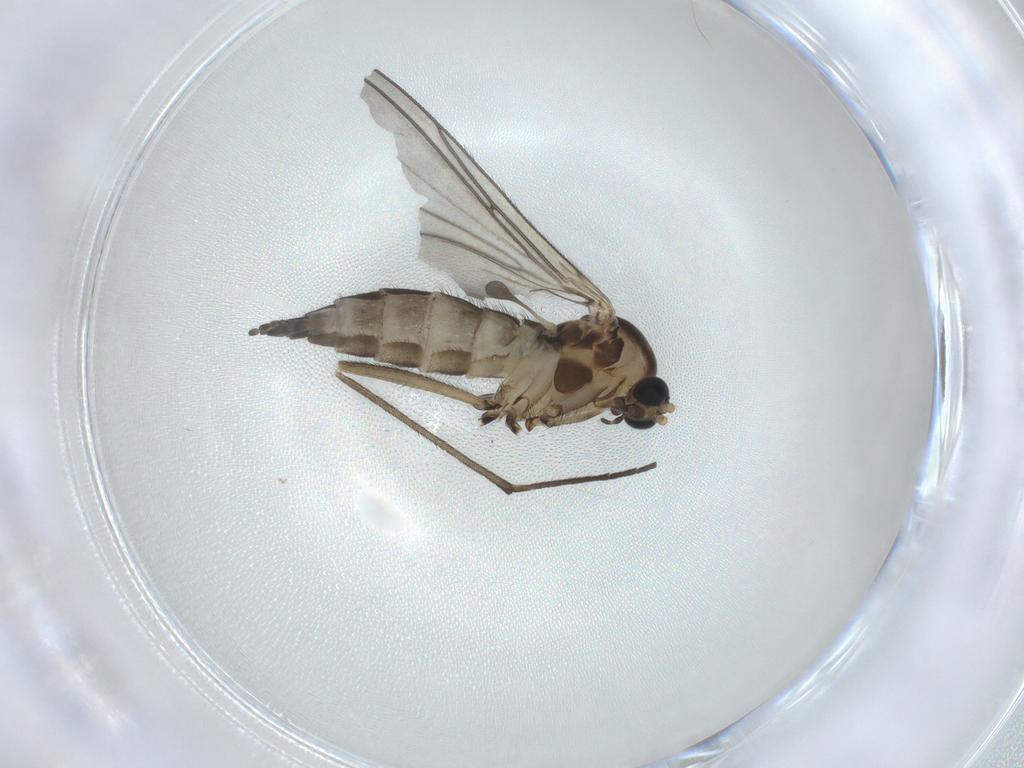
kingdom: Animalia
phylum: Arthropoda
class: Insecta
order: Diptera
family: Sciaridae
